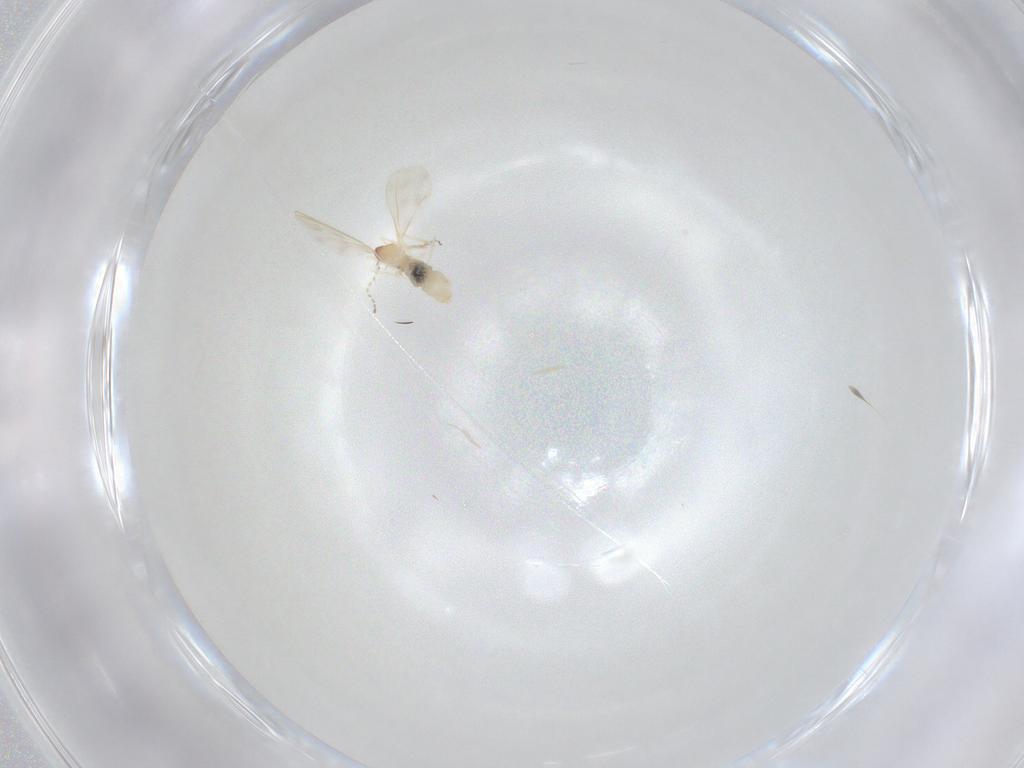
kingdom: Animalia
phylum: Arthropoda
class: Insecta
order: Diptera
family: Cecidomyiidae
